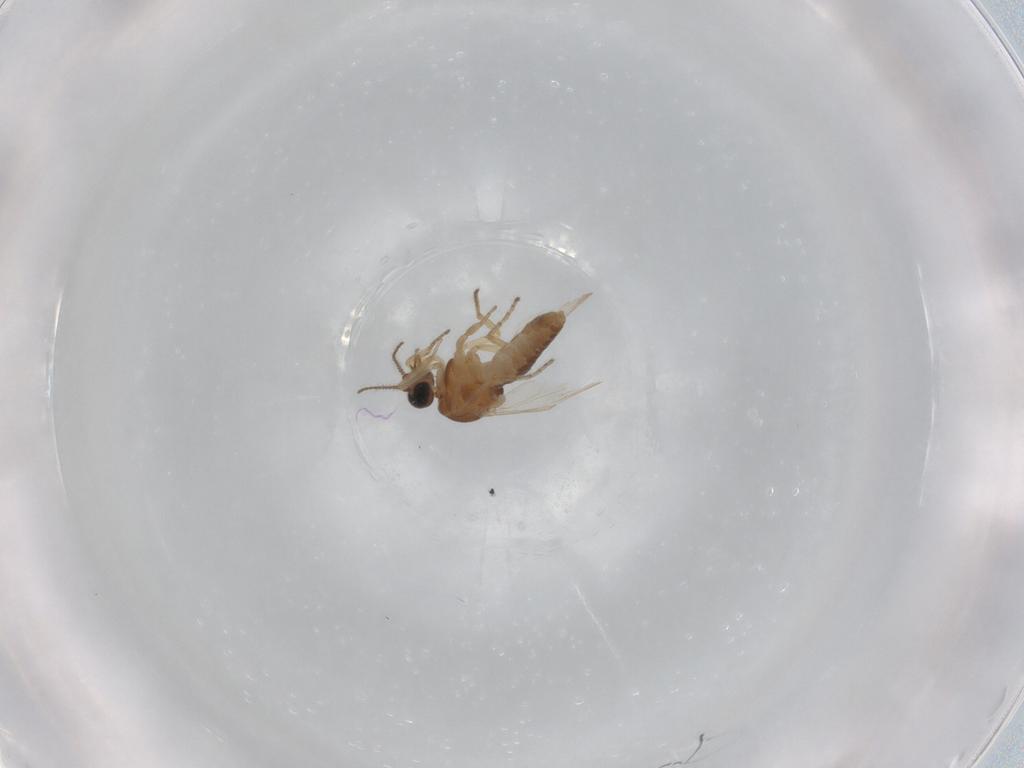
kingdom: Animalia
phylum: Arthropoda
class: Insecta
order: Diptera
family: Ceratopogonidae
